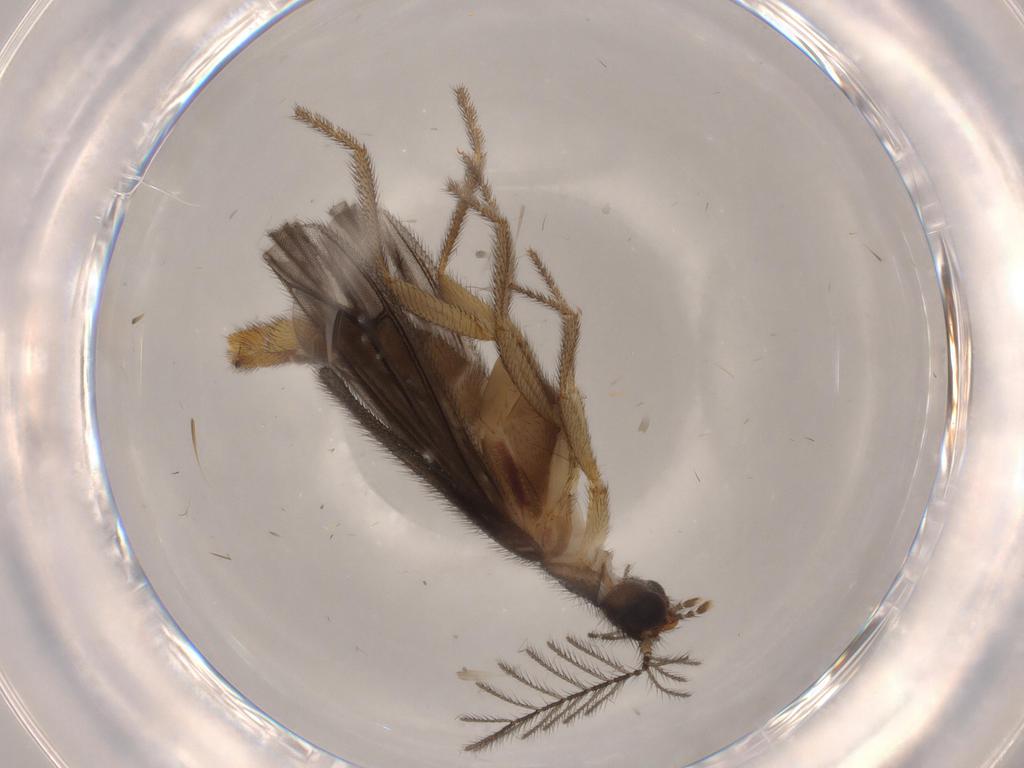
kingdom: Animalia
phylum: Arthropoda
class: Insecta
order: Coleoptera
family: Phengodidae
